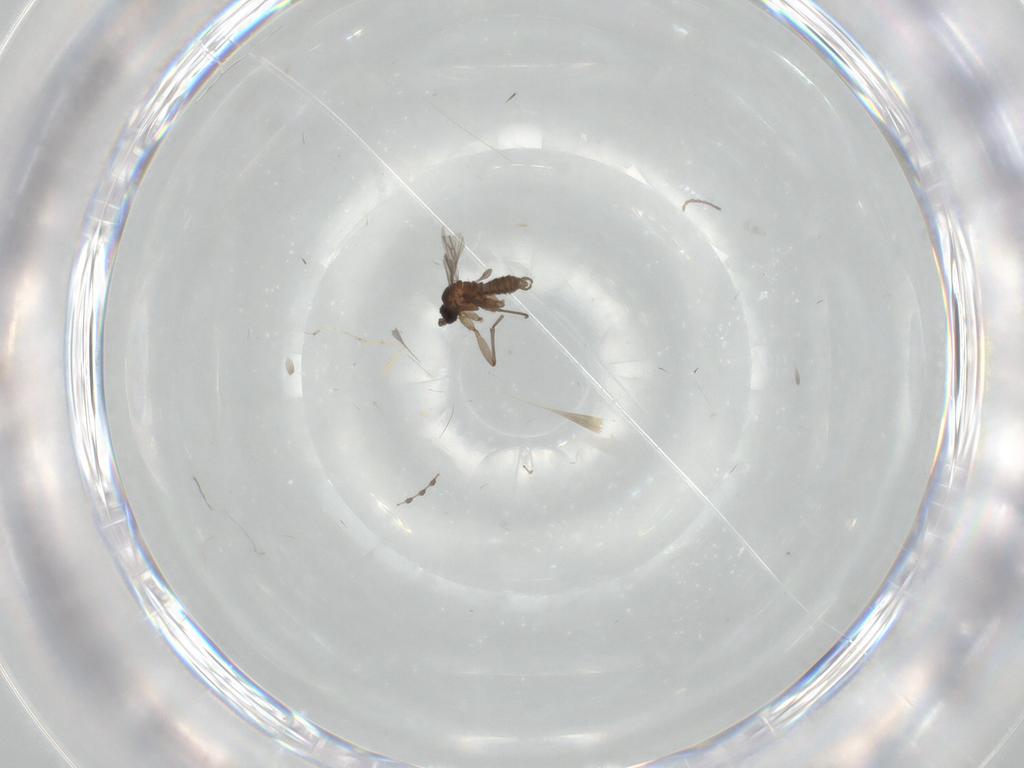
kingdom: Animalia
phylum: Arthropoda
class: Insecta
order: Diptera
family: Sciaridae
